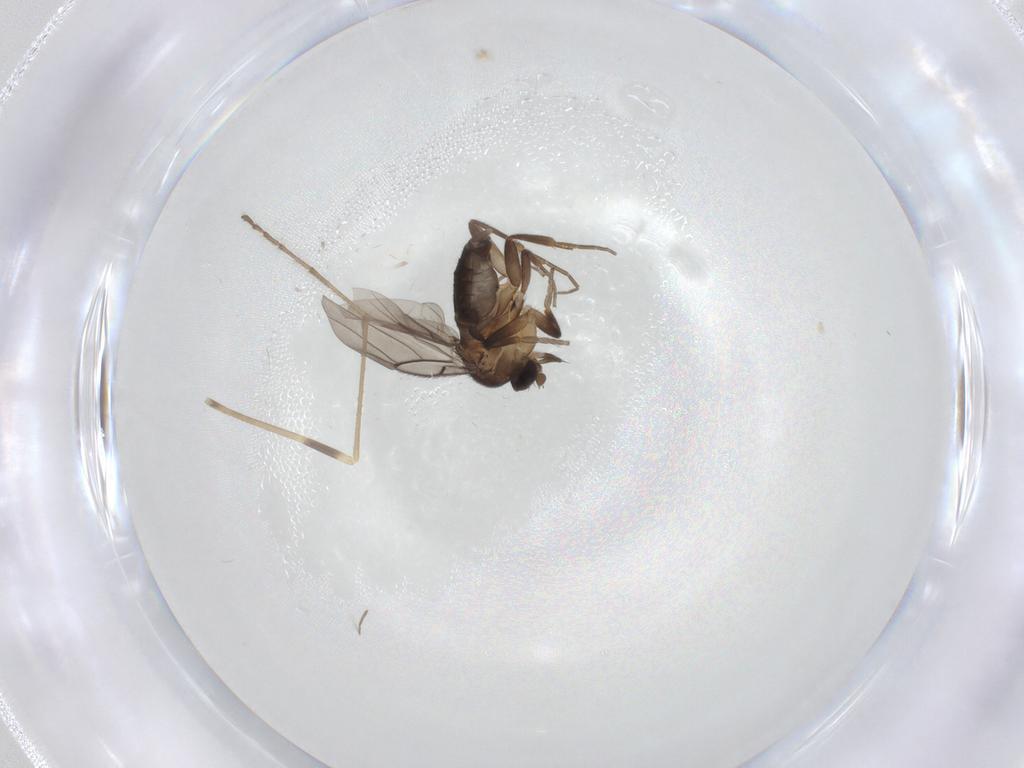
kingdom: Animalia
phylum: Arthropoda
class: Insecta
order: Diptera
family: Limoniidae
